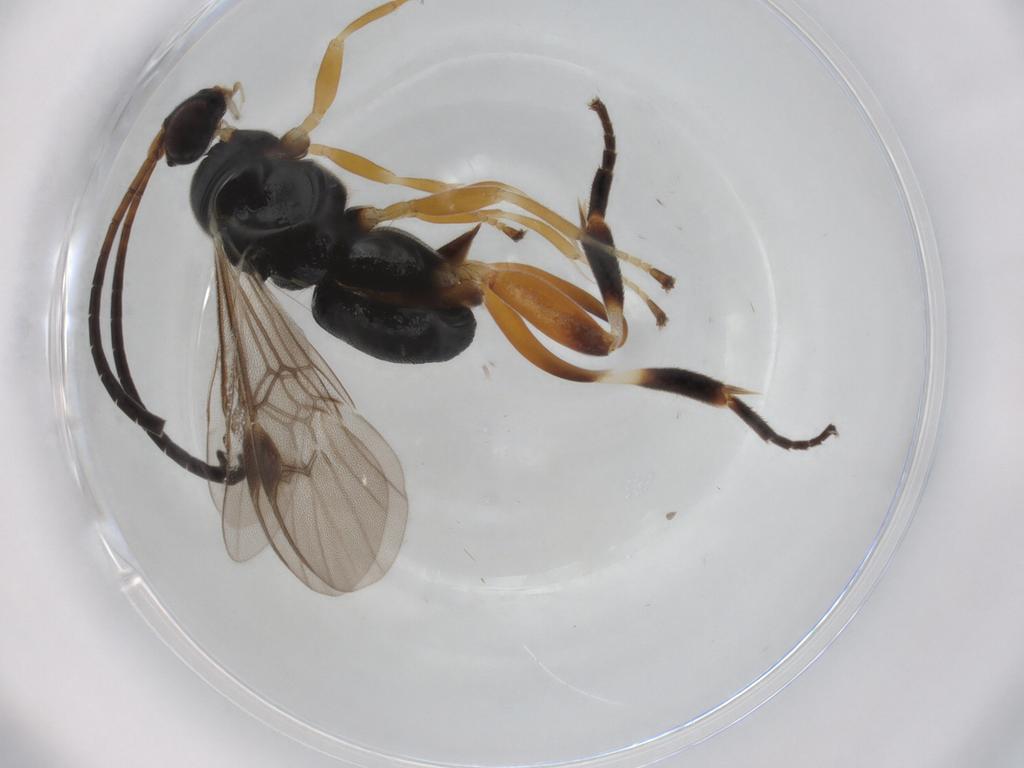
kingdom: Animalia
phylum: Arthropoda
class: Insecta
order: Hymenoptera
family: Braconidae
